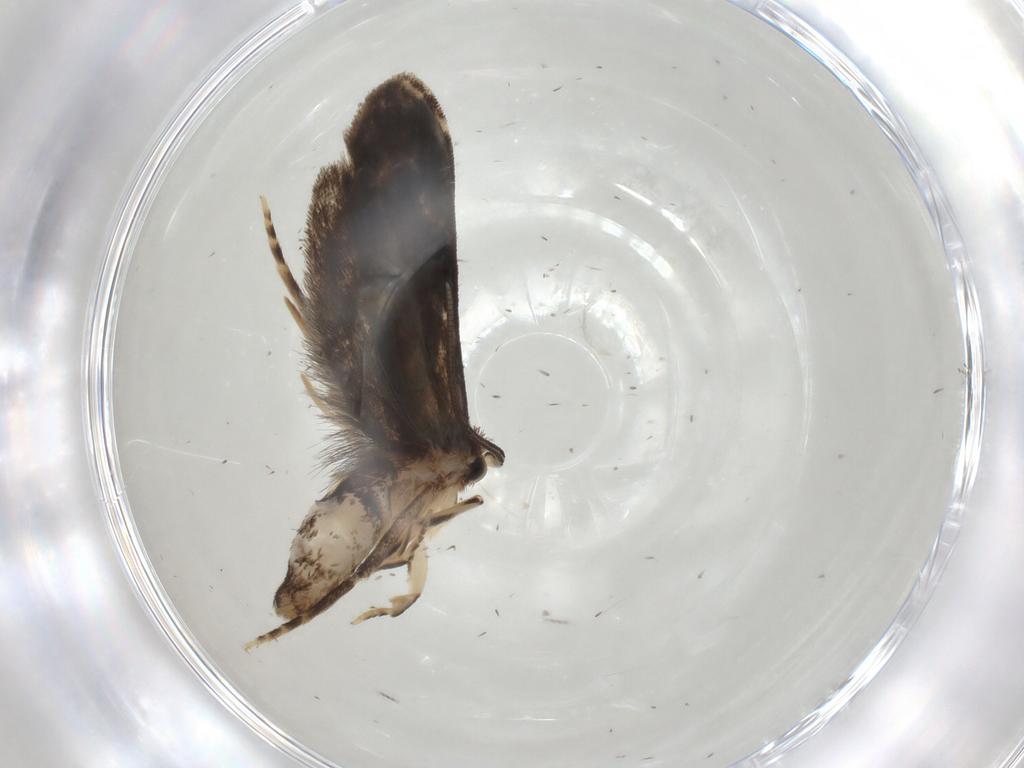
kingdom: Animalia
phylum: Arthropoda
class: Insecta
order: Lepidoptera
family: Dryadaulidae
